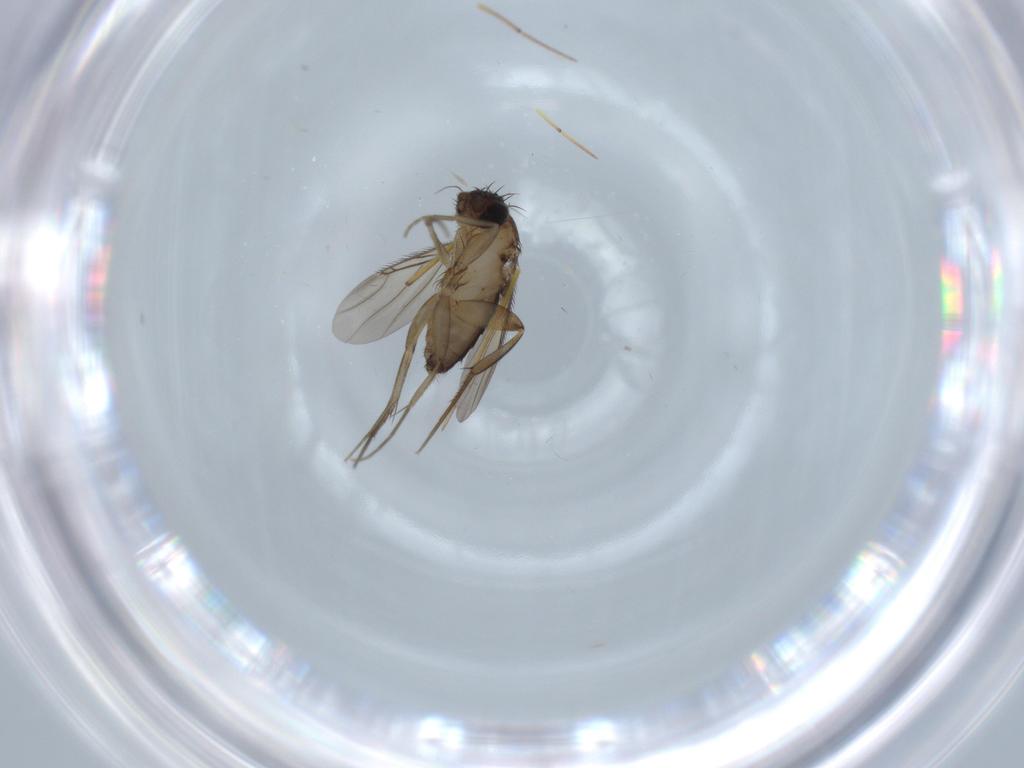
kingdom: Animalia
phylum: Arthropoda
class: Insecta
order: Diptera
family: Phoridae
